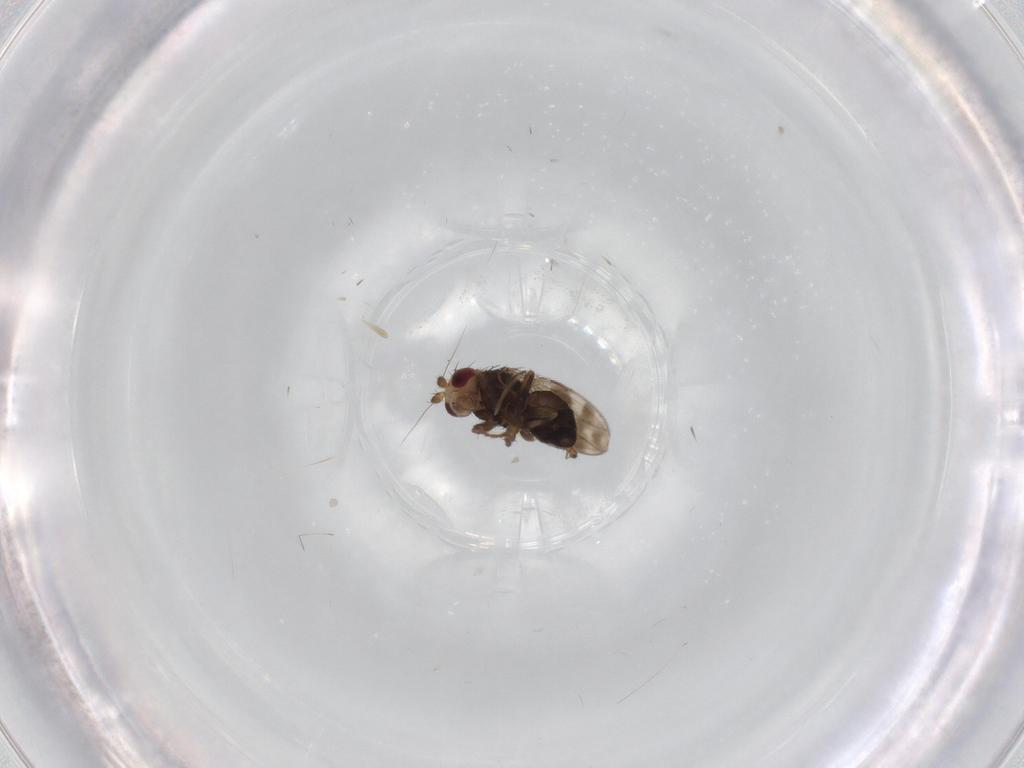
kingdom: Animalia
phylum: Arthropoda
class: Insecta
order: Diptera
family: Sphaeroceridae
